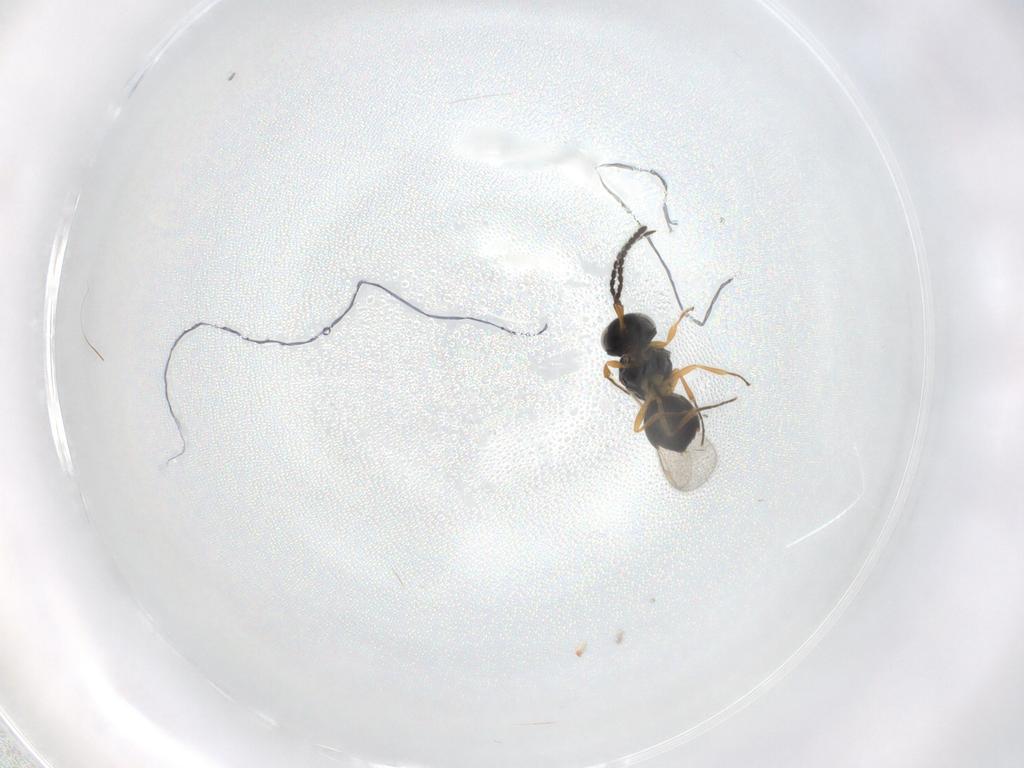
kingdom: Animalia
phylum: Arthropoda
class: Insecta
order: Hymenoptera
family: Scelionidae
